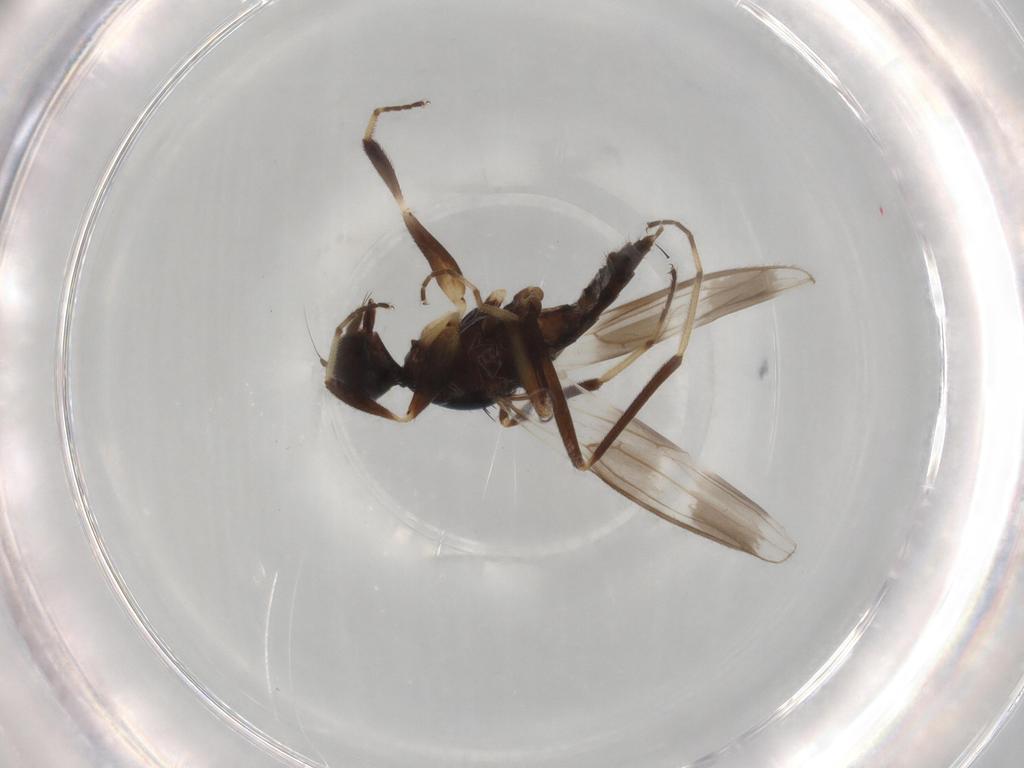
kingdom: Animalia
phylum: Arthropoda
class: Insecta
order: Diptera
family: Hybotidae
